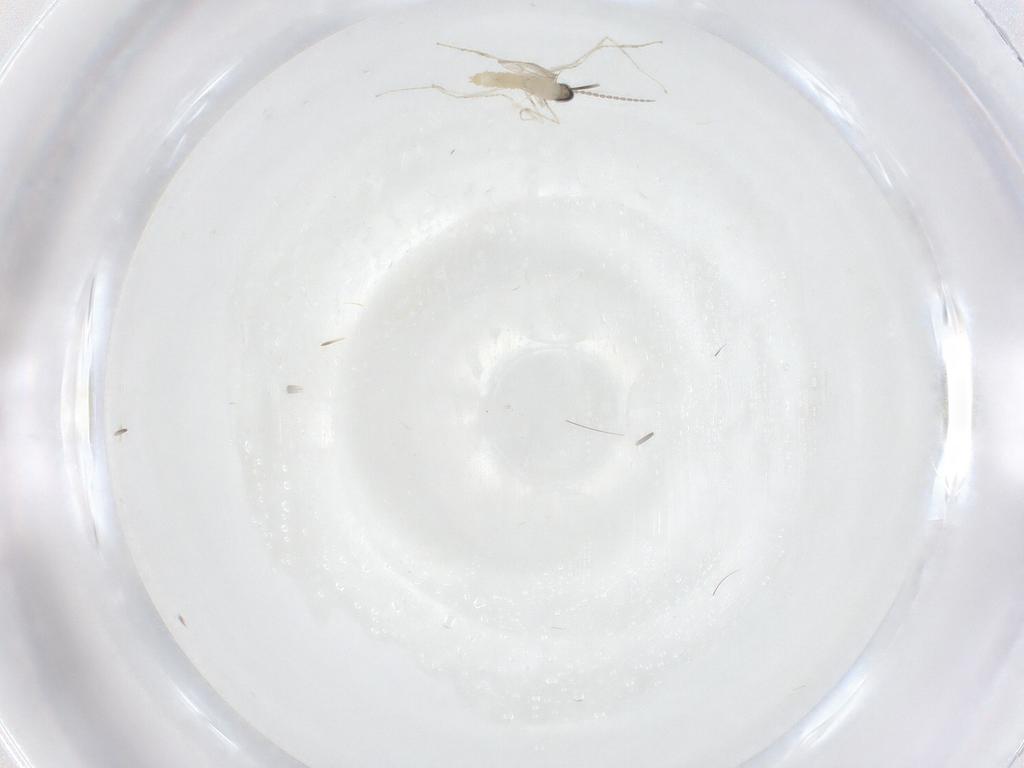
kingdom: Animalia
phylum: Arthropoda
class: Insecta
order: Diptera
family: Cecidomyiidae
